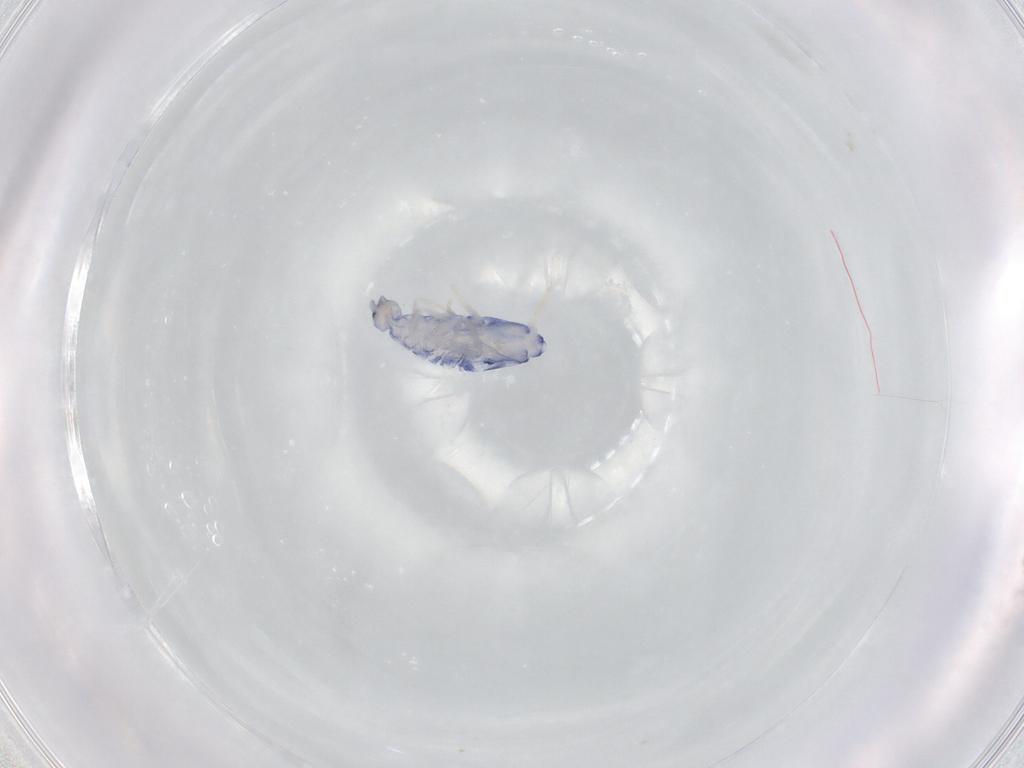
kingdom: Animalia
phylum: Arthropoda
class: Collembola
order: Entomobryomorpha
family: Entomobryidae
